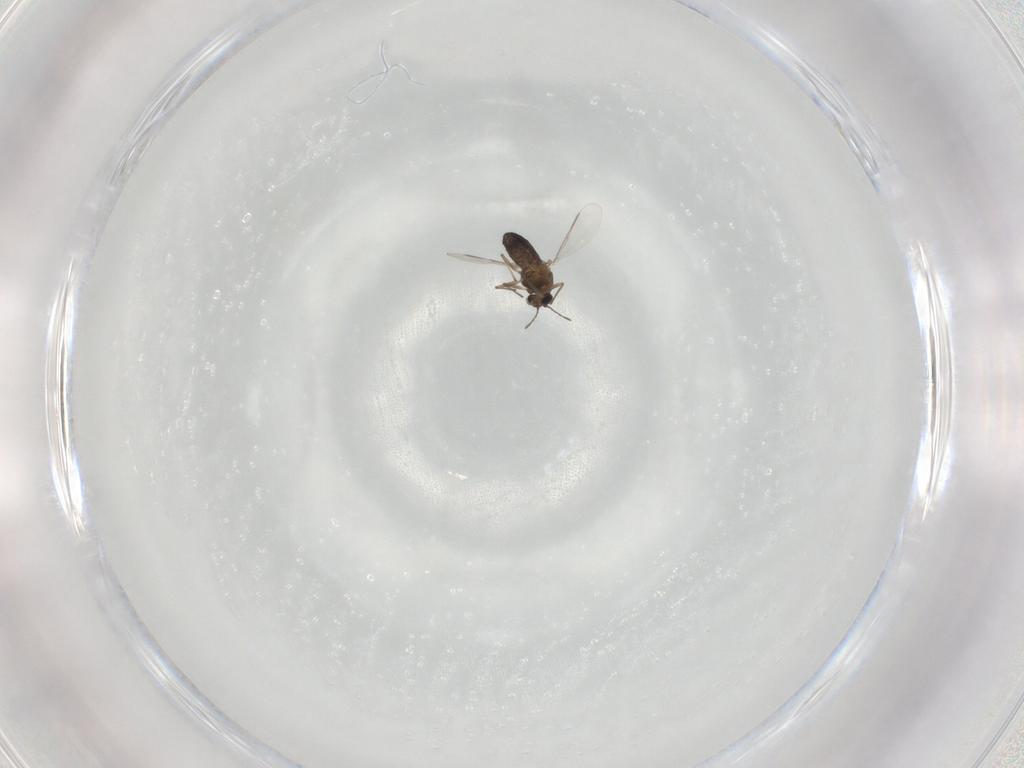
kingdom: Animalia
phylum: Arthropoda
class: Insecta
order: Diptera
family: Chironomidae
